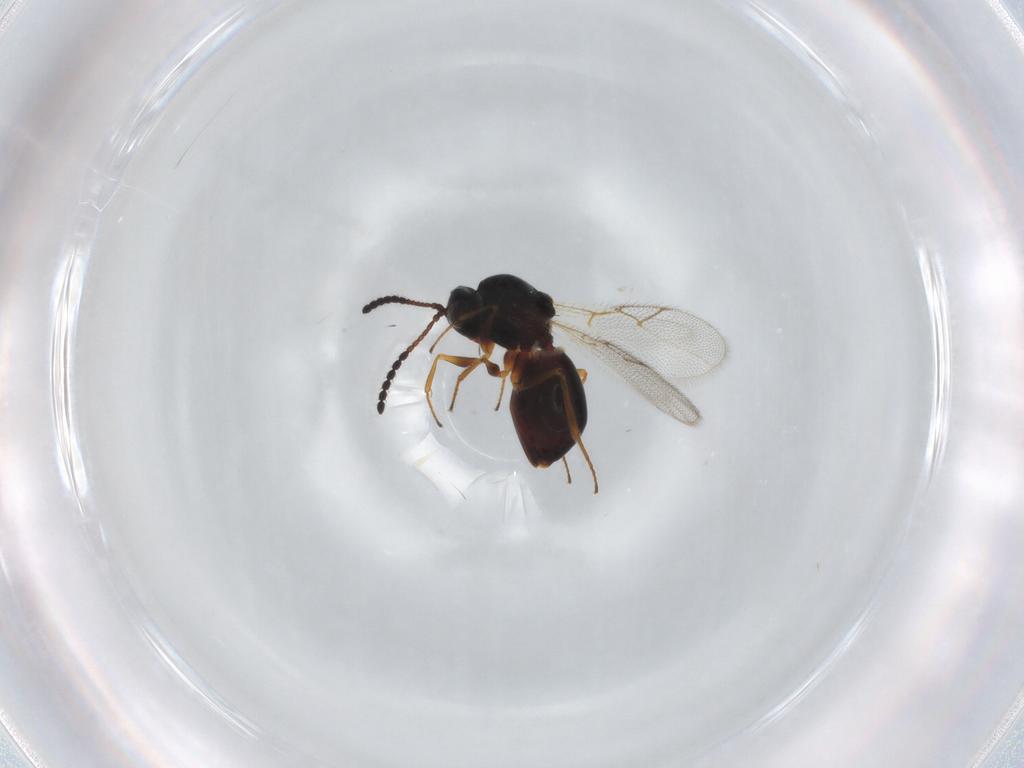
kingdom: Animalia
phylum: Arthropoda
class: Insecta
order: Hymenoptera
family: Figitidae
